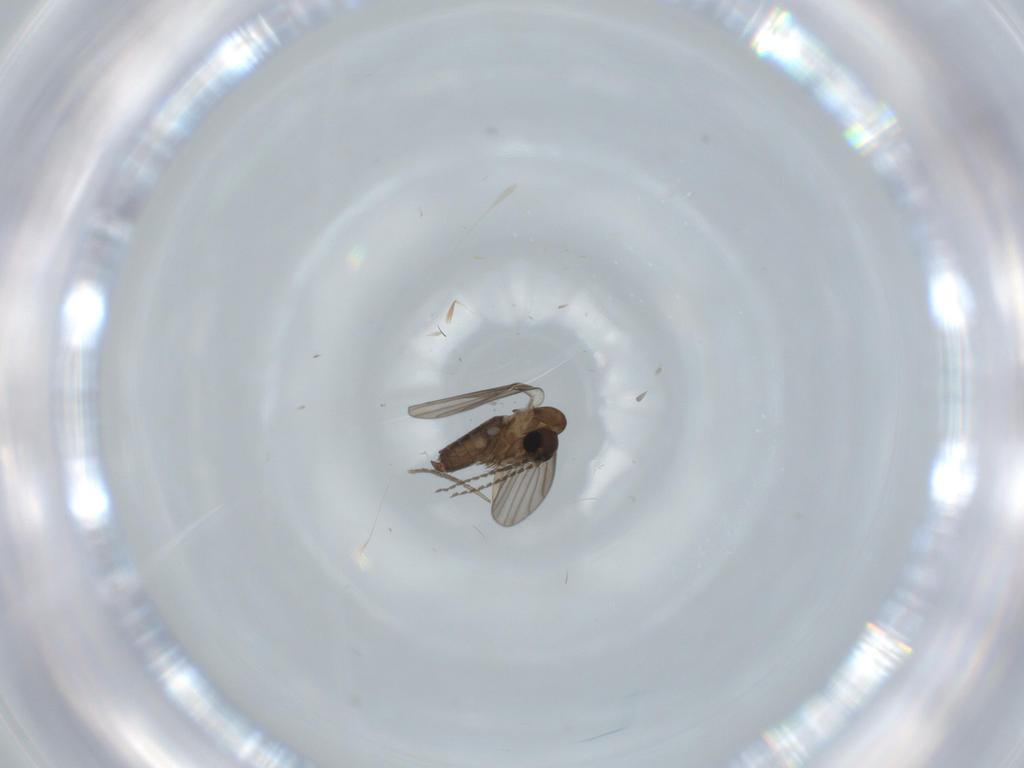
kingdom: Animalia
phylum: Arthropoda
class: Insecta
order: Diptera
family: Psychodidae
